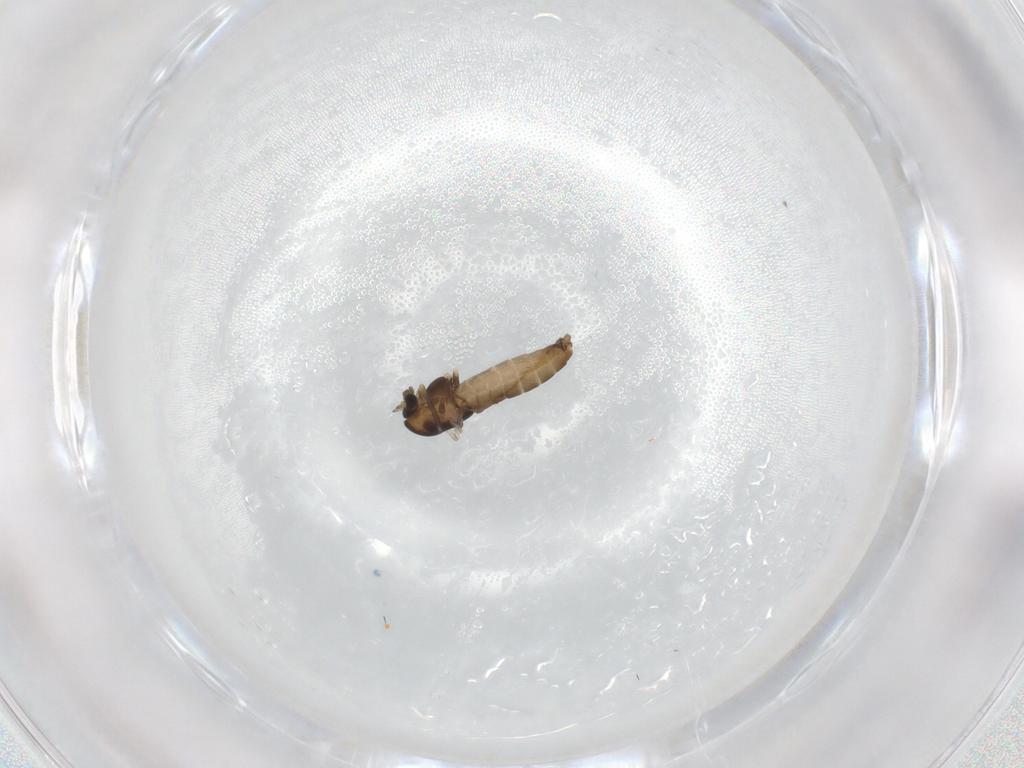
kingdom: Animalia
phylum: Arthropoda
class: Insecta
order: Diptera
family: Chironomidae
